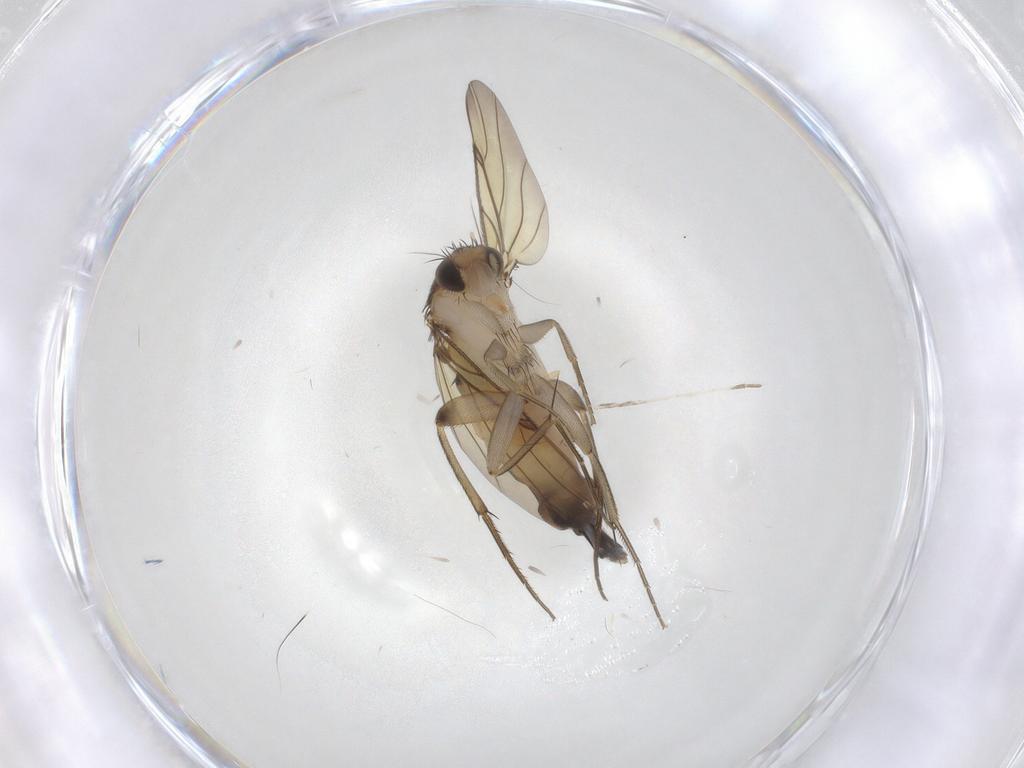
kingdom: Animalia
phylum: Arthropoda
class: Insecta
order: Diptera
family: Phoridae
